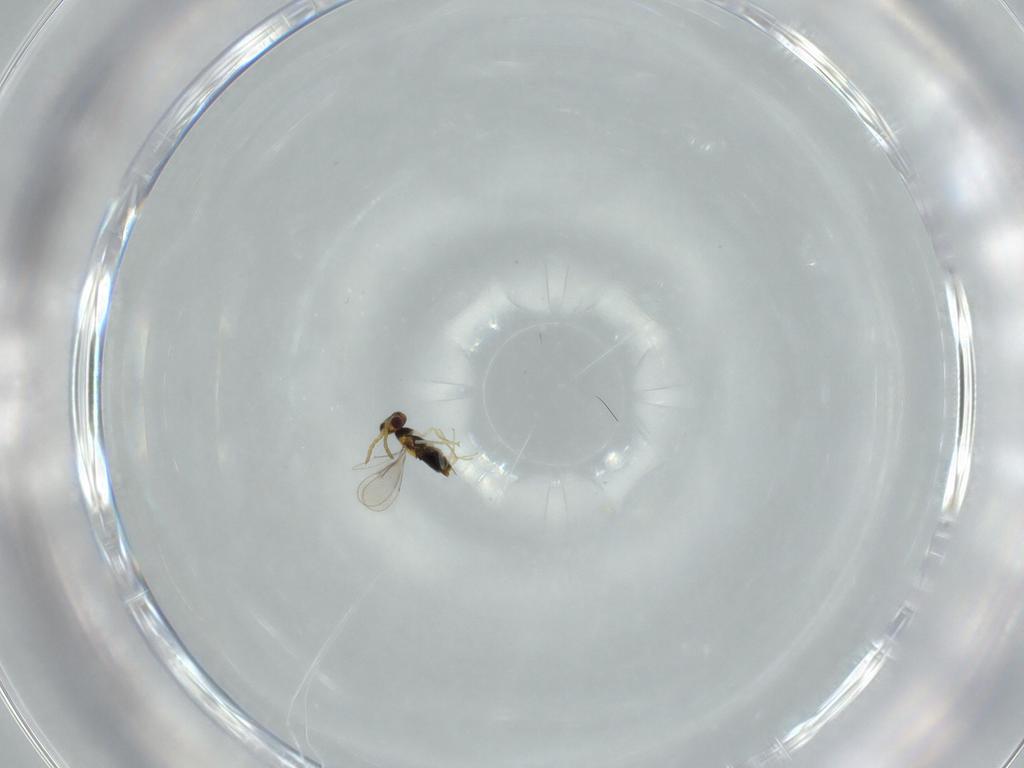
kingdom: Animalia
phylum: Arthropoda
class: Insecta
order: Hymenoptera
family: Aphelinidae
